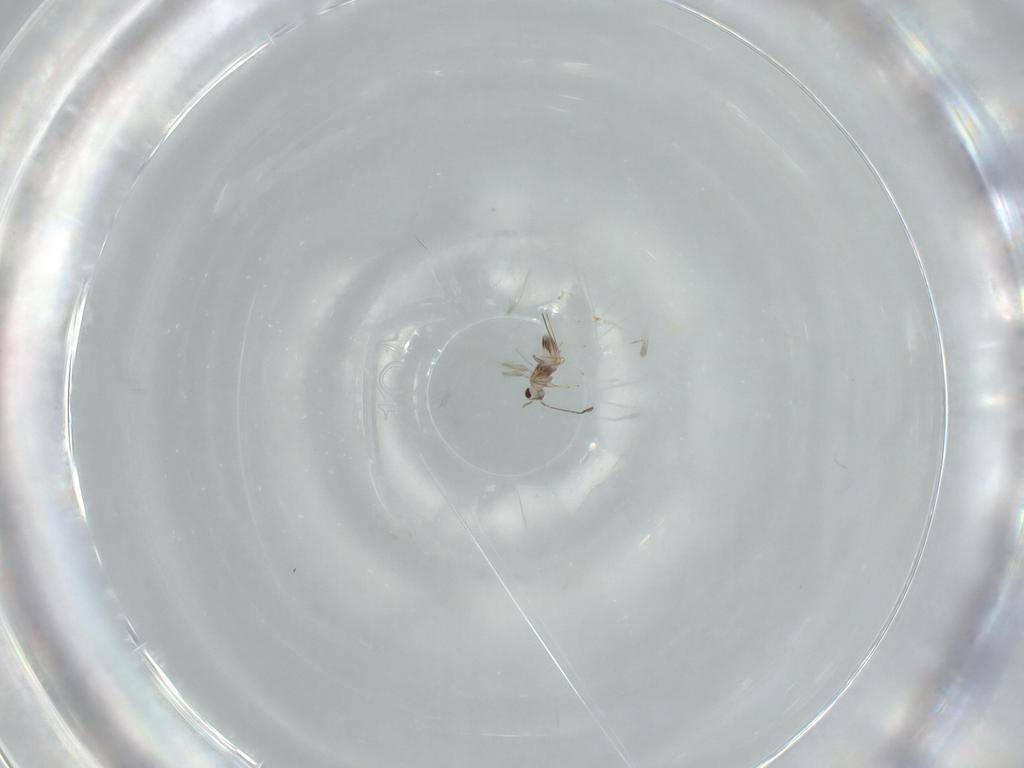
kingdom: Animalia
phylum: Arthropoda
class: Insecta
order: Hymenoptera
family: Mymaridae
